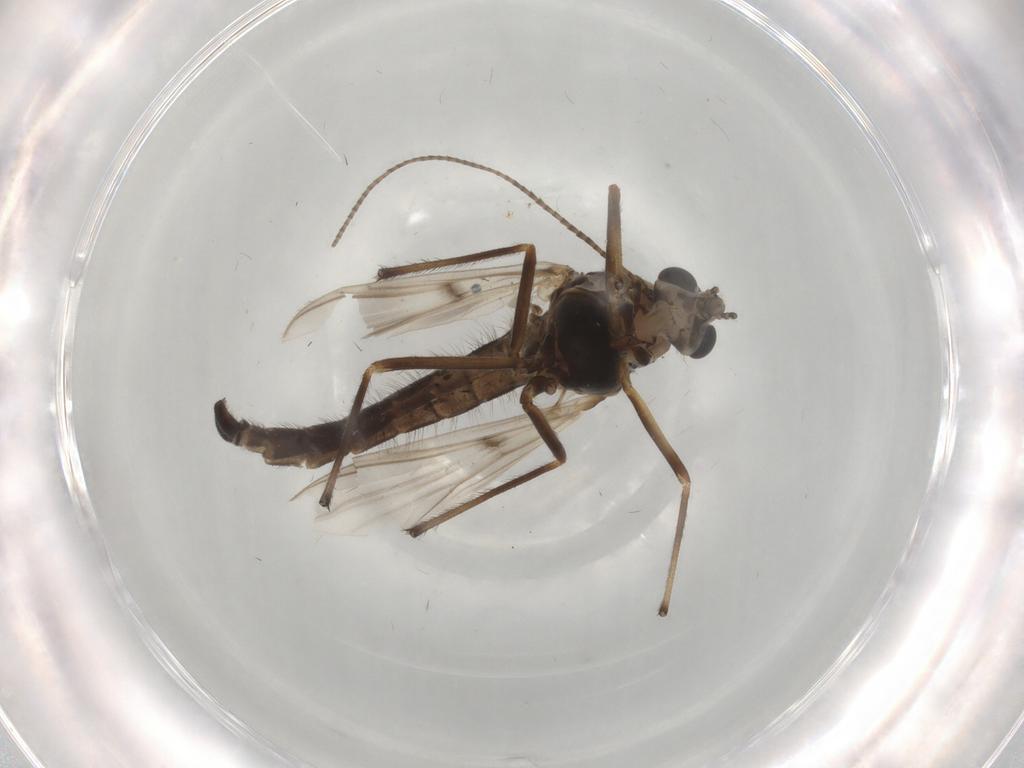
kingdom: Animalia
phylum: Arthropoda
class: Insecta
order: Diptera
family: Chironomidae
